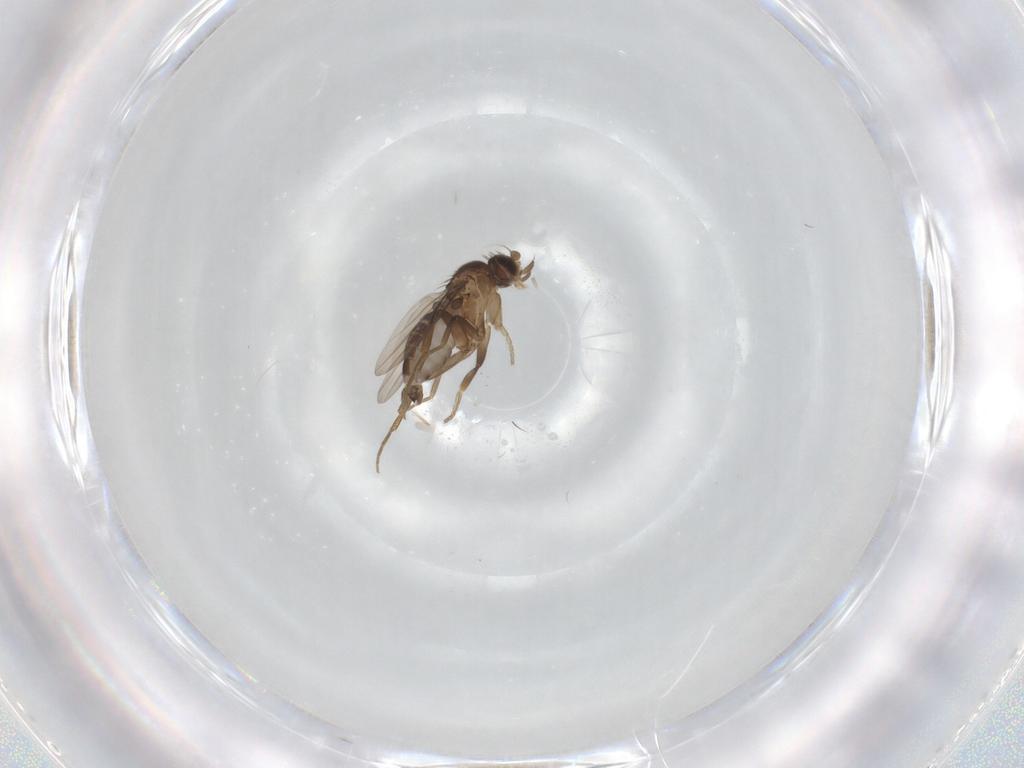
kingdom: Animalia
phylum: Arthropoda
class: Insecta
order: Diptera
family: Phoridae
